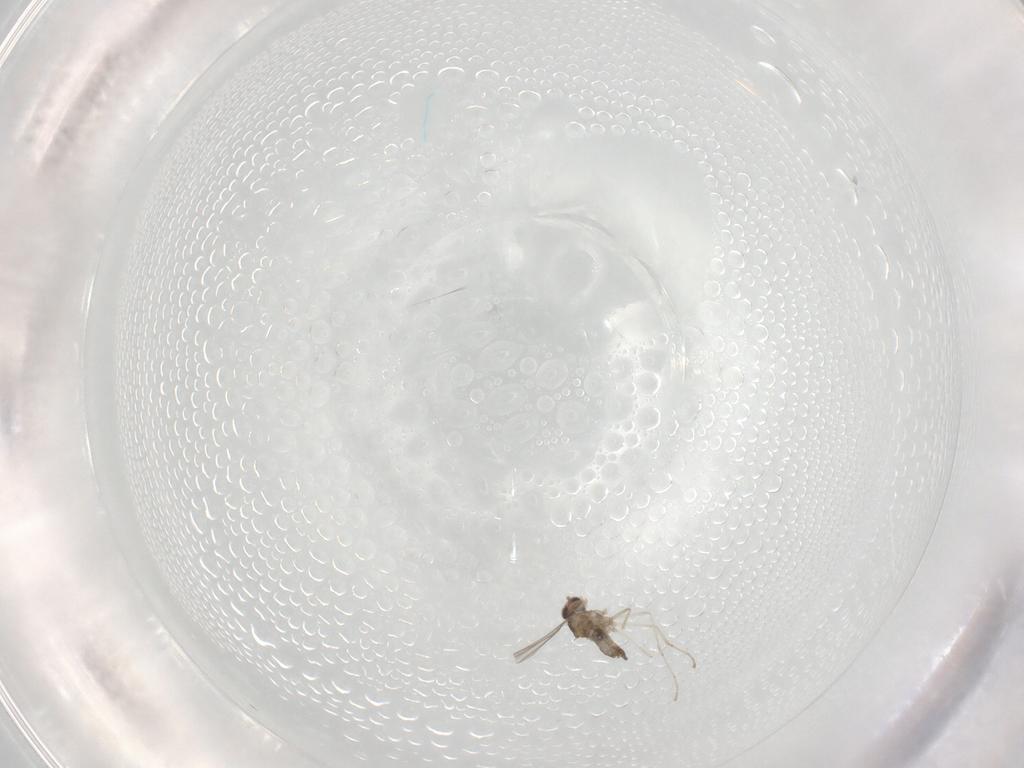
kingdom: Animalia
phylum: Arthropoda
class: Insecta
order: Diptera
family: Cecidomyiidae
